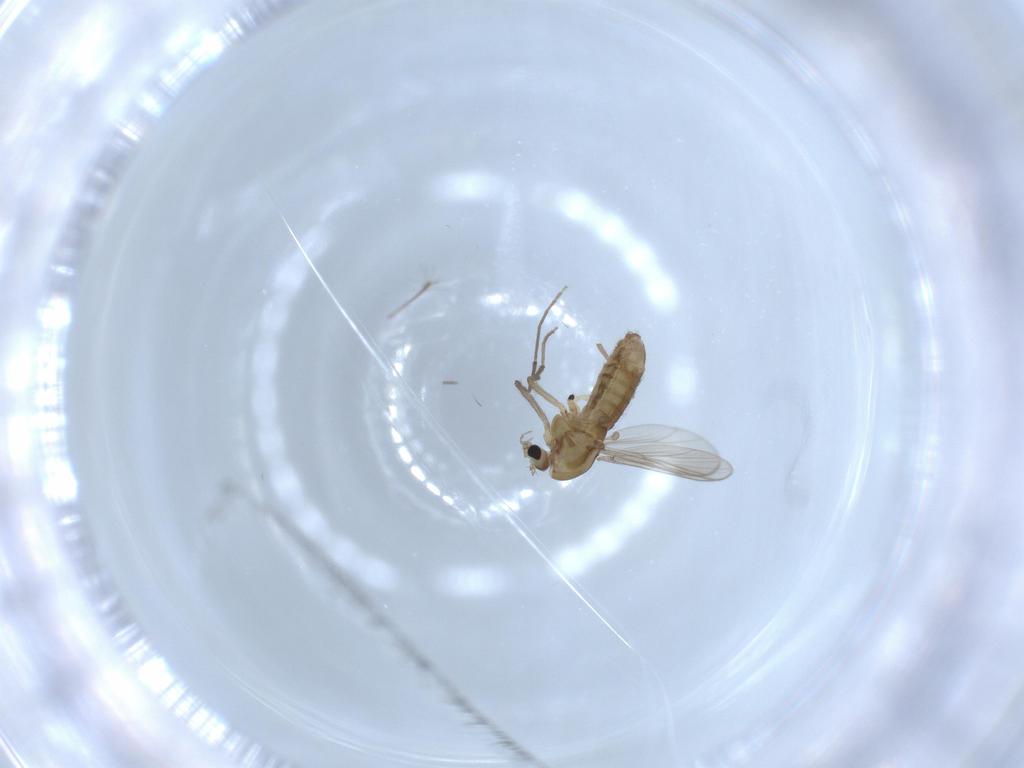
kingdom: Animalia
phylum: Arthropoda
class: Insecta
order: Diptera
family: Chironomidae
